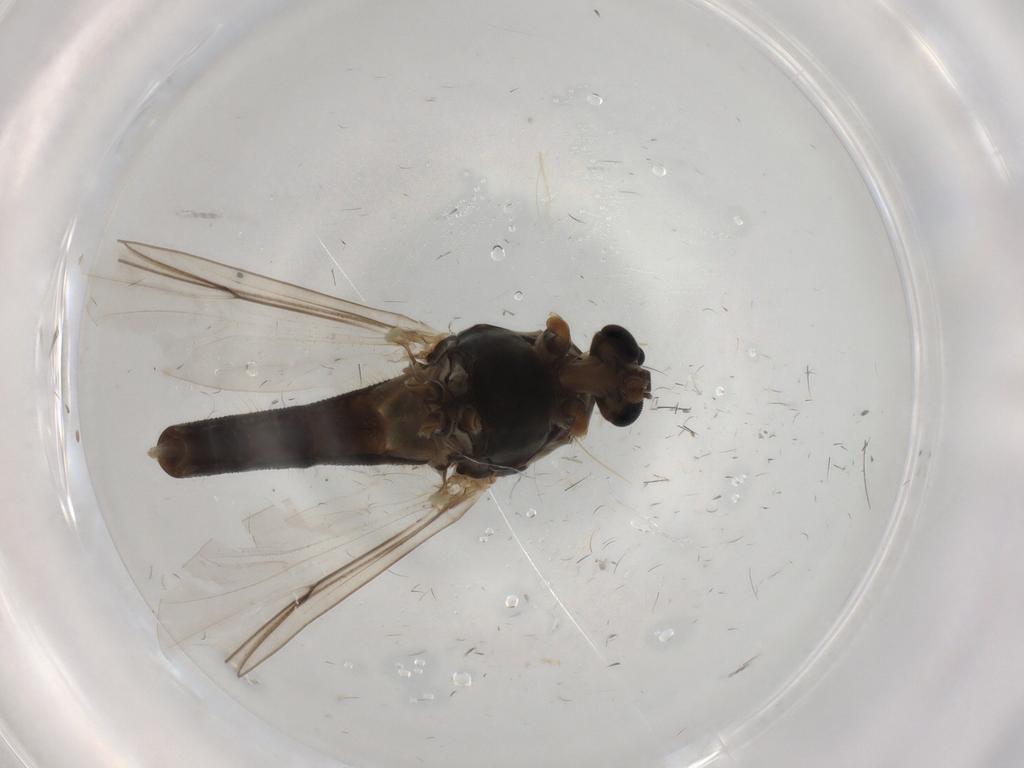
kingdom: Animalia
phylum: Arthropoda
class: Insecta
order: Diptera
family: Chironomidae
